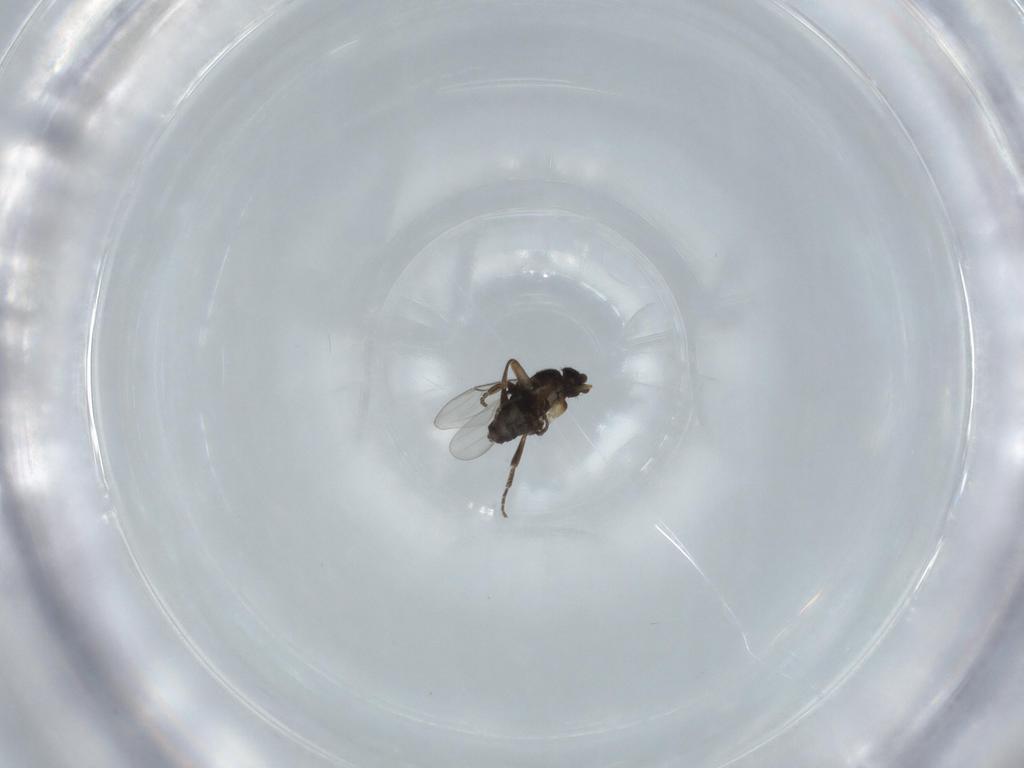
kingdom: Animalia
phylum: Arthropoda
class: Insecta
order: Diptera
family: Phoridae
